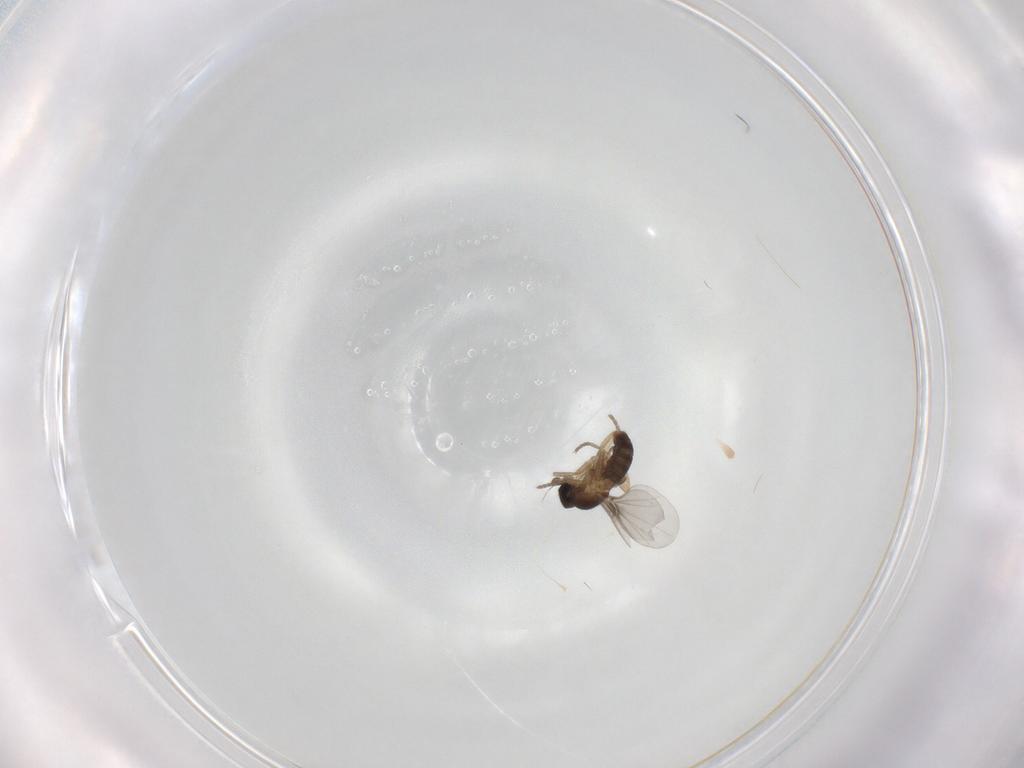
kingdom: Animalia
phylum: Arthropoda
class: Insecta
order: Diptera
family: Phoridae
